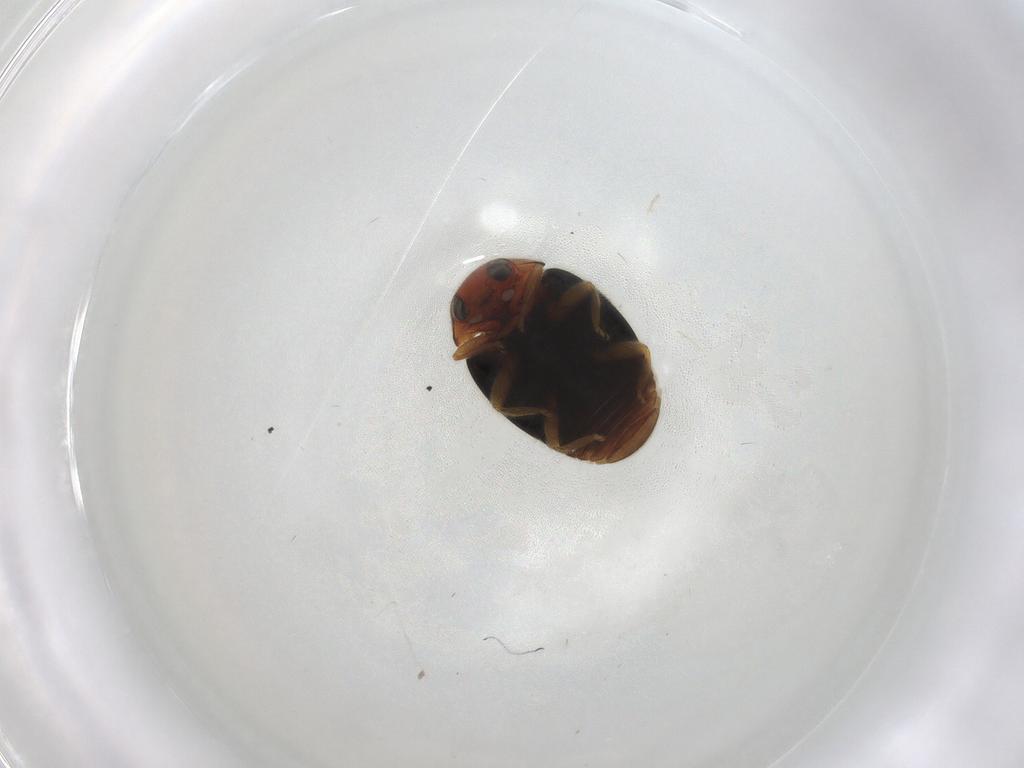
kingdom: Animalia
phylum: Arthropoda
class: Insecta
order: Coleoptera
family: Coccinellidae
